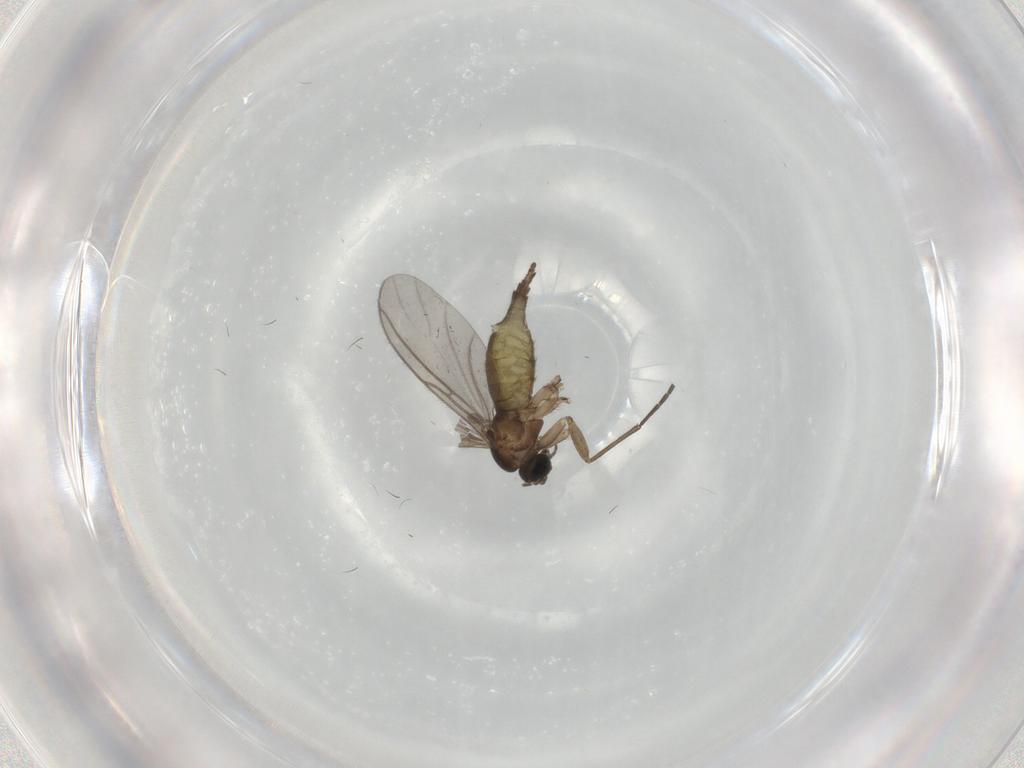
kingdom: Animalia
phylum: Arthropoda
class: Insecta
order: Diptera
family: Sciaridae
